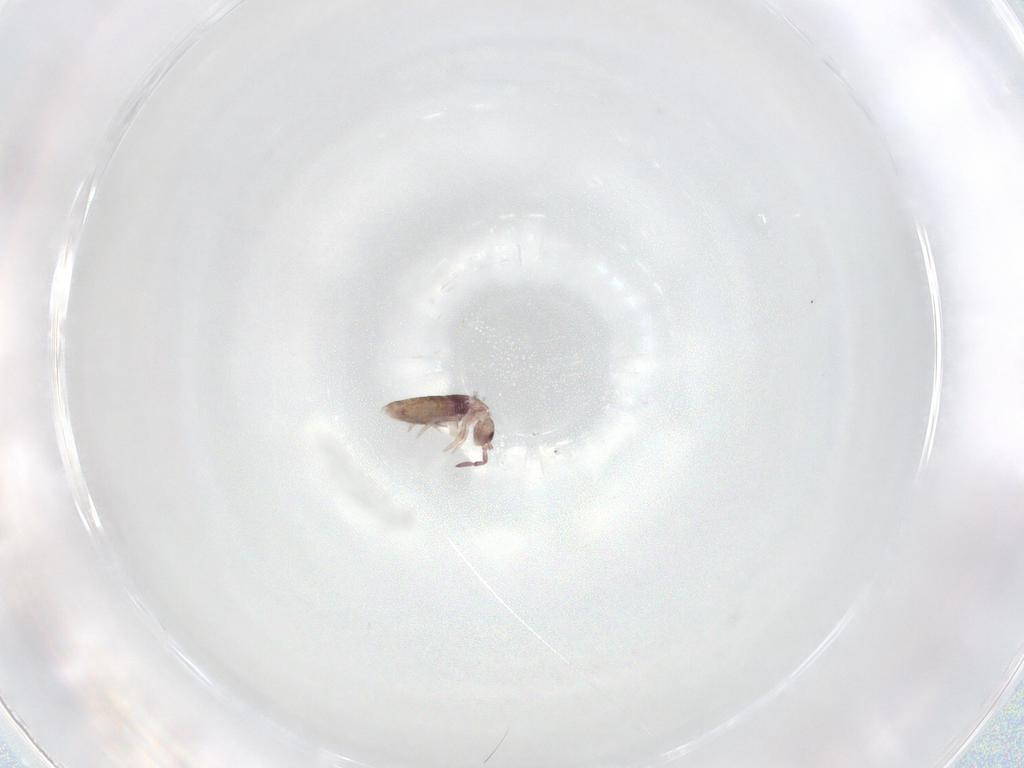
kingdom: Animalia
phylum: Arthropoda
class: Collembola
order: Entomobryomorpha
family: Entomobryidae
